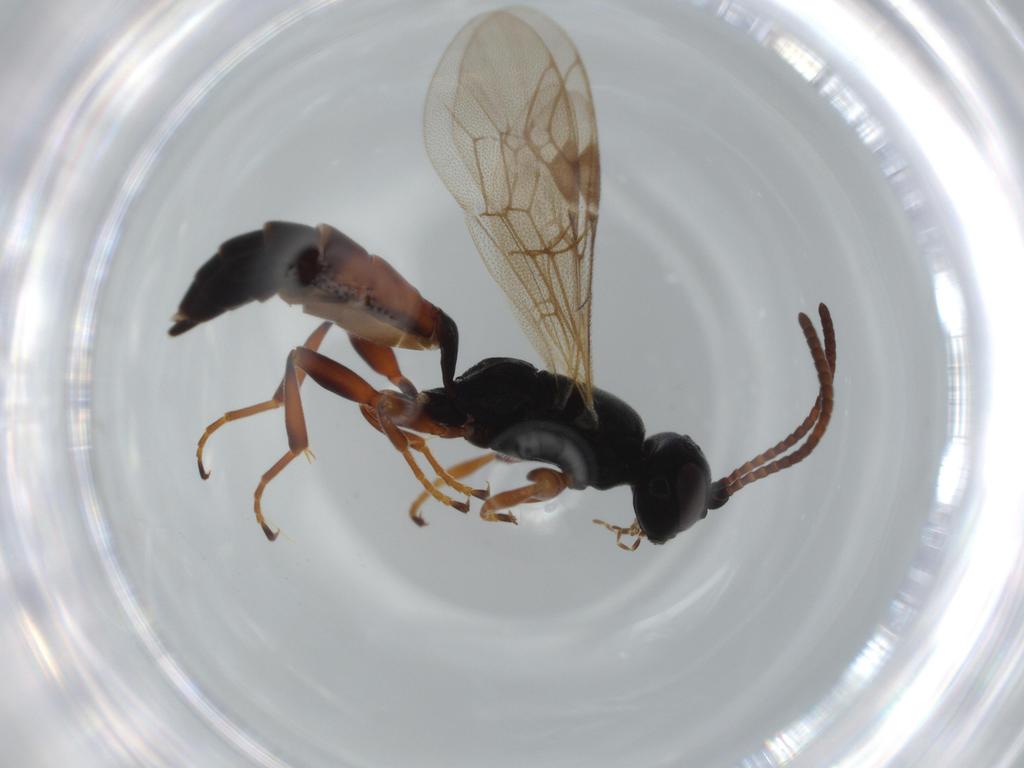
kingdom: Animalia
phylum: Arthropoda
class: Insecta
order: Hymenoptera
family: Ichneumonidae
